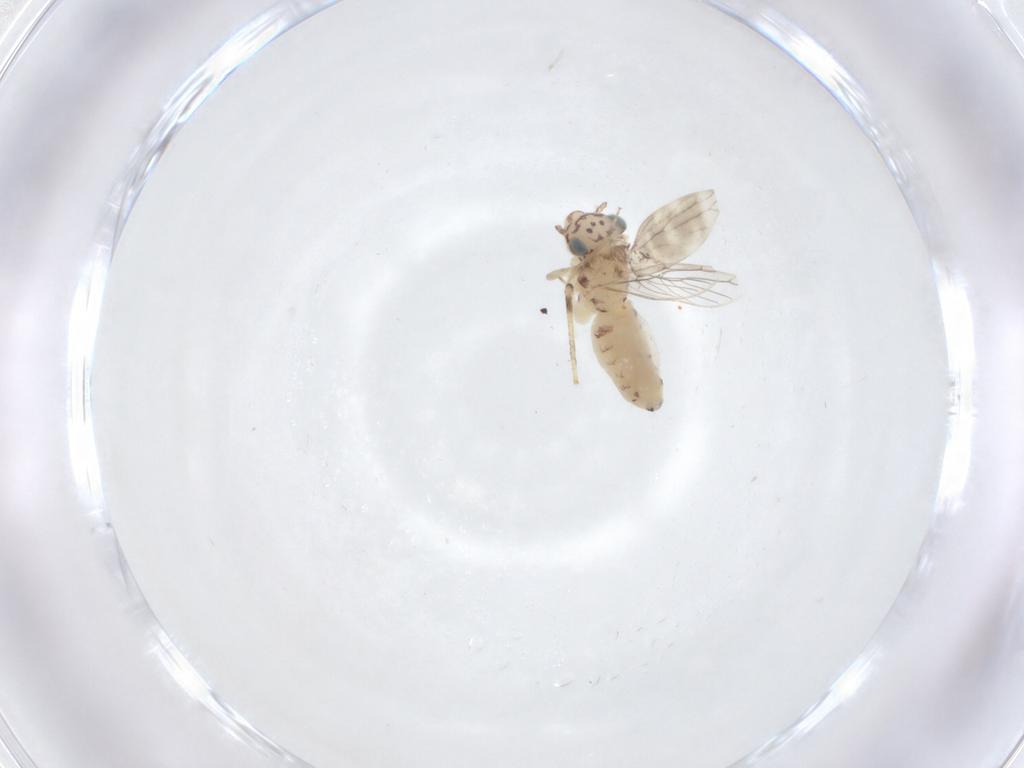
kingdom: Animalia
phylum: Arthropoda
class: Insecta
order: Psocodea
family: Lepidopsocidae
